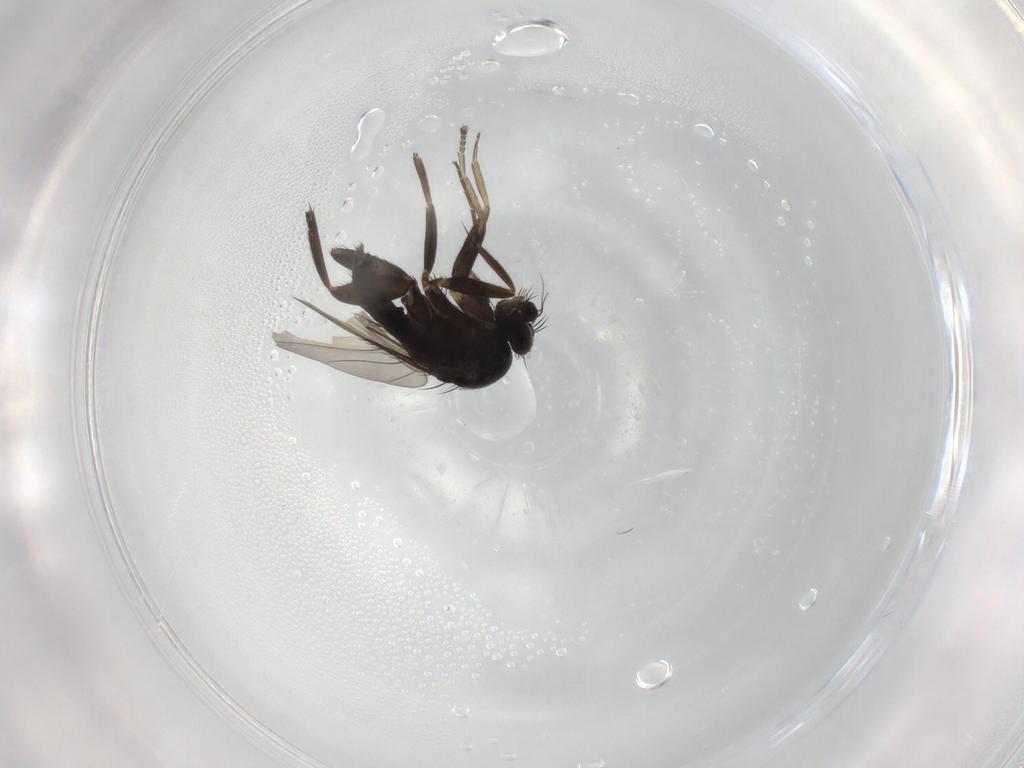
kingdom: Animalia
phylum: Arthropoda
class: Insecta
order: Diptera
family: Phoridae
